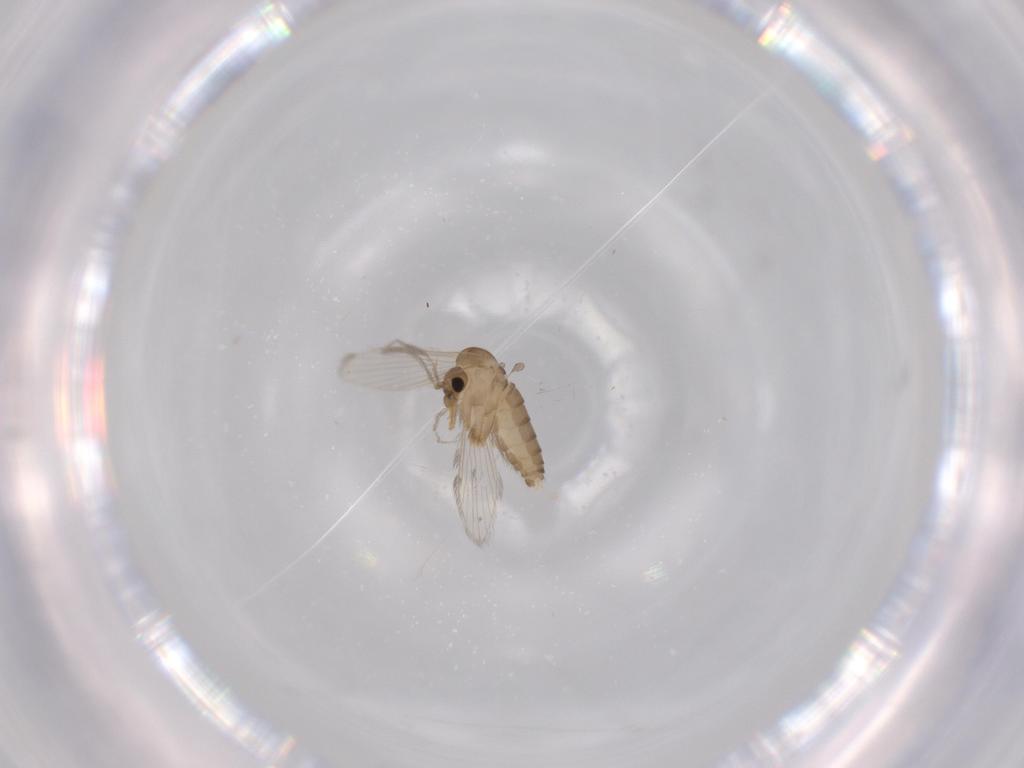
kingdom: Animalia
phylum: Arthropoda
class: Insecta
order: Diptera
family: Psychodidae
